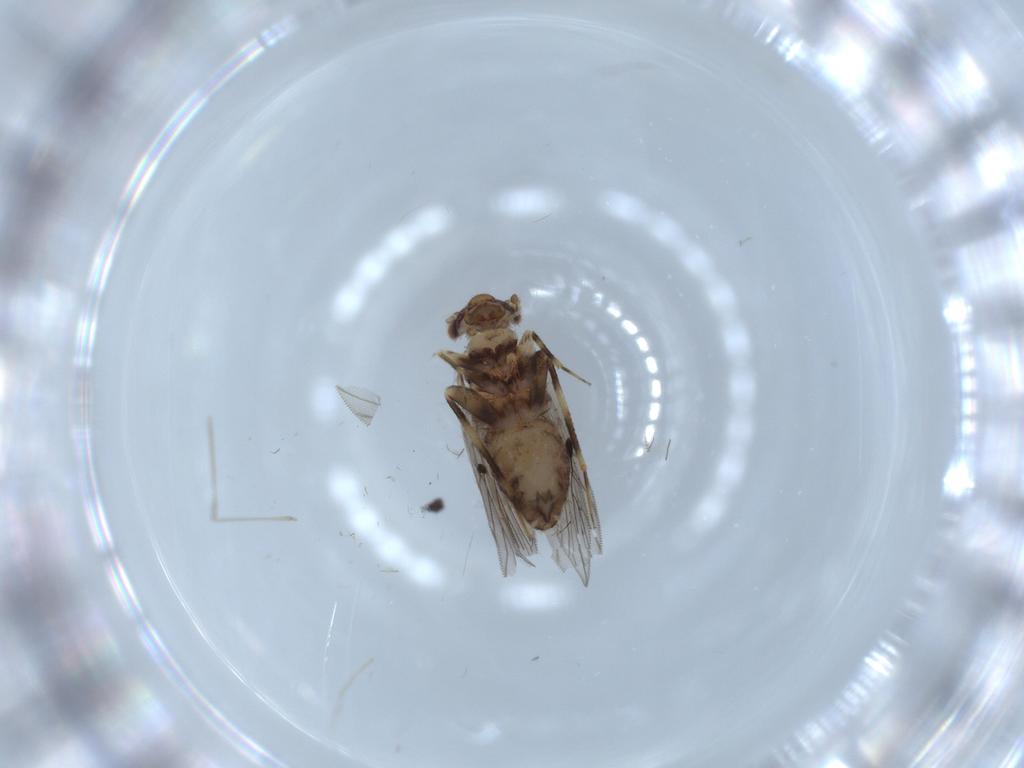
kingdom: Animalia
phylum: Arthropoda
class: Insecta
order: Psocodea
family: Lepidopsocidae
